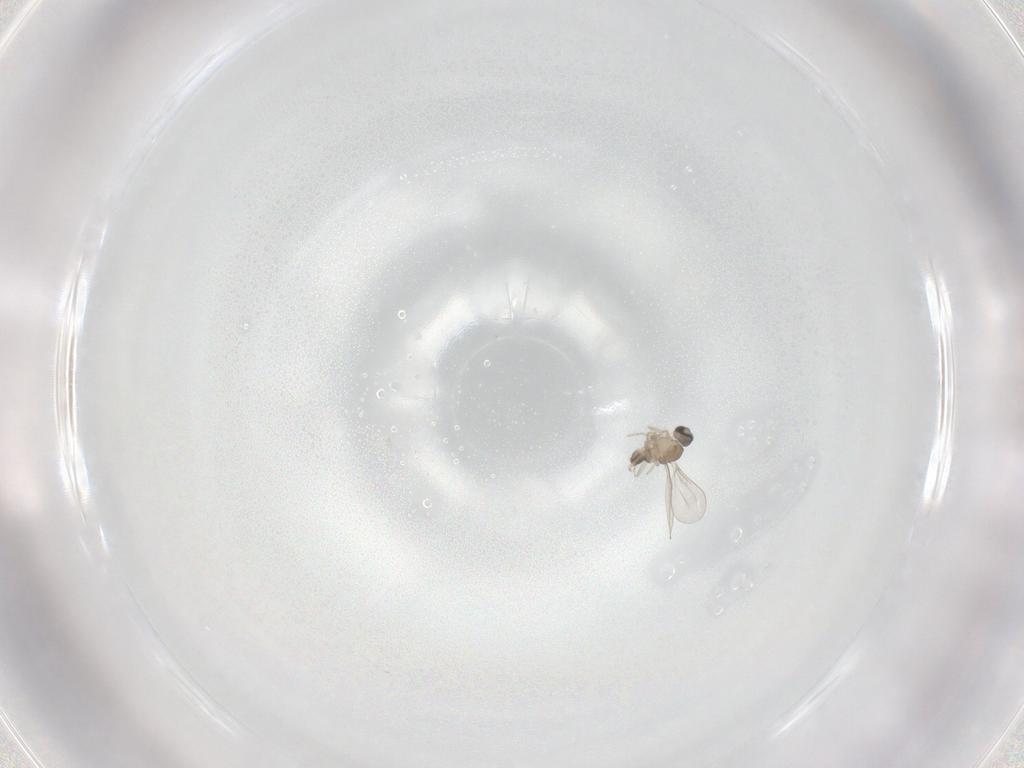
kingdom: Animalia
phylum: Arthropoda
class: Insecta
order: Diptera
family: Cecidomyiidae
